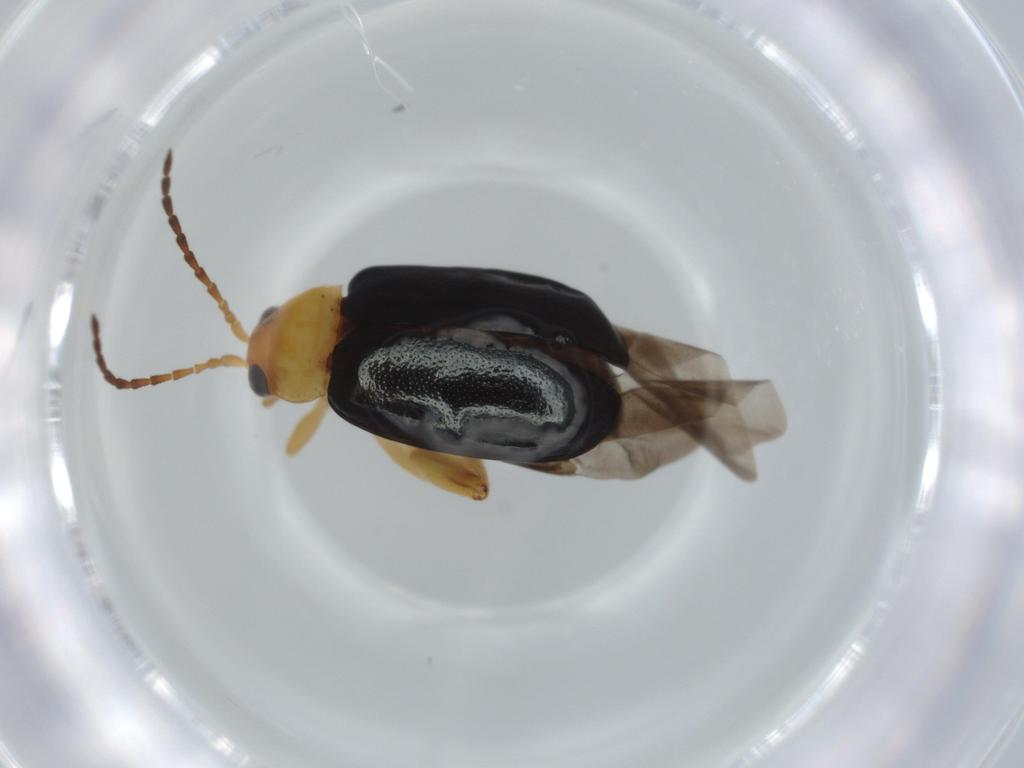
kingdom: Animalia
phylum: Arthropoda
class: Insecta
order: Coleoptera
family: Chrysomelidae
